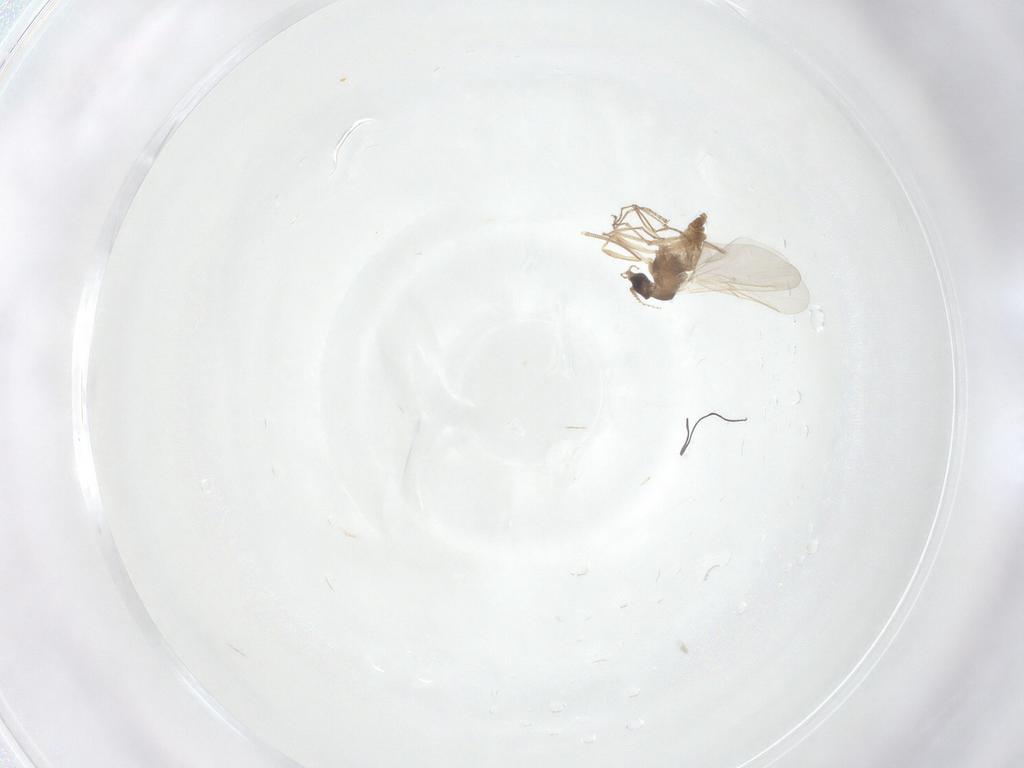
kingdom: Animalia
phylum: Arthropoda
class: Insecta
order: Diptera
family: Cecidomyiidae
